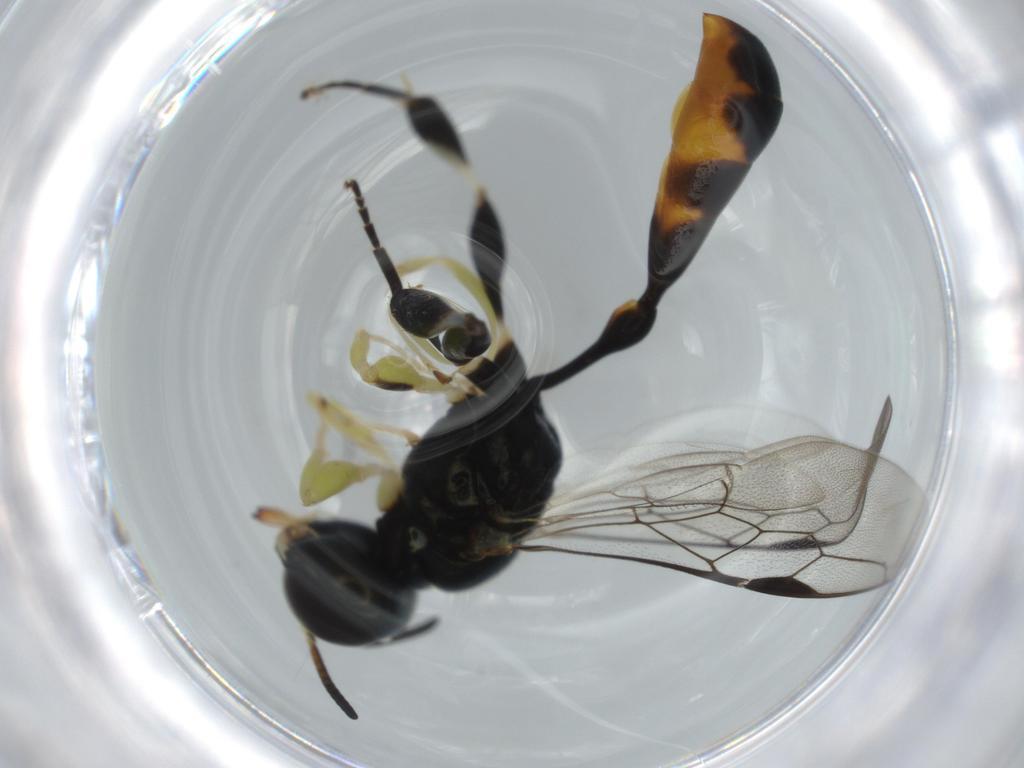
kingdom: Animalia
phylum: Arthropoda
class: Insecta
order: Hymenoptera
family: Crabronidae
